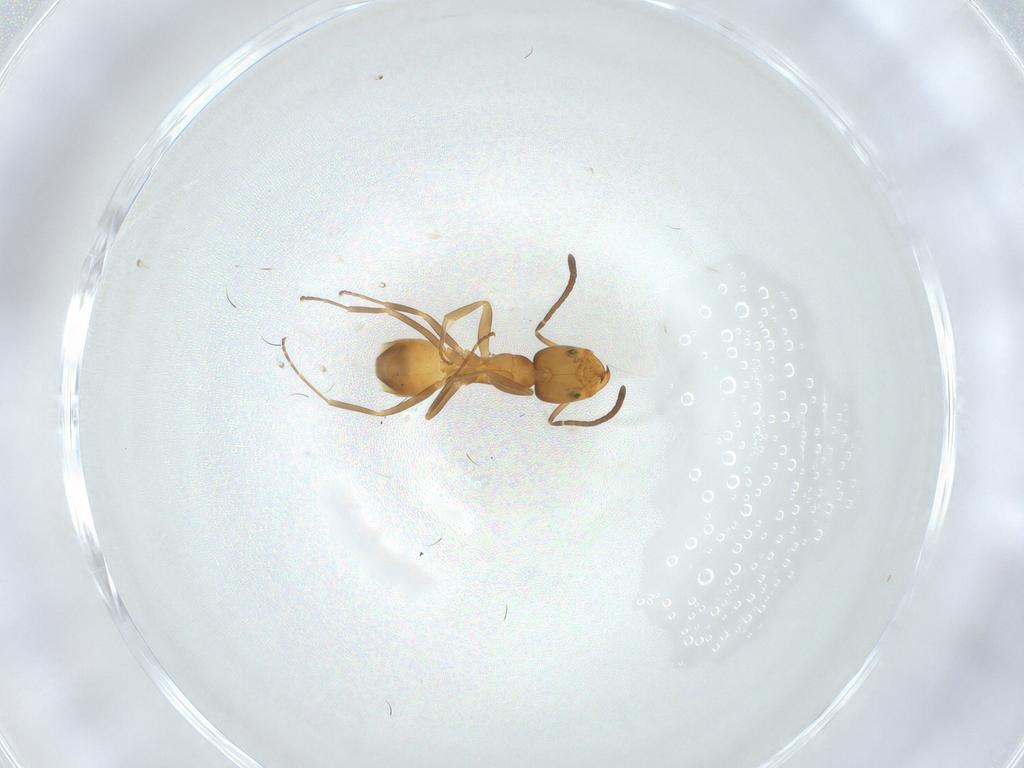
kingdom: Animalia
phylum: Arthropoda
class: Insecta
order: Hymenoptera
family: Formicidae
